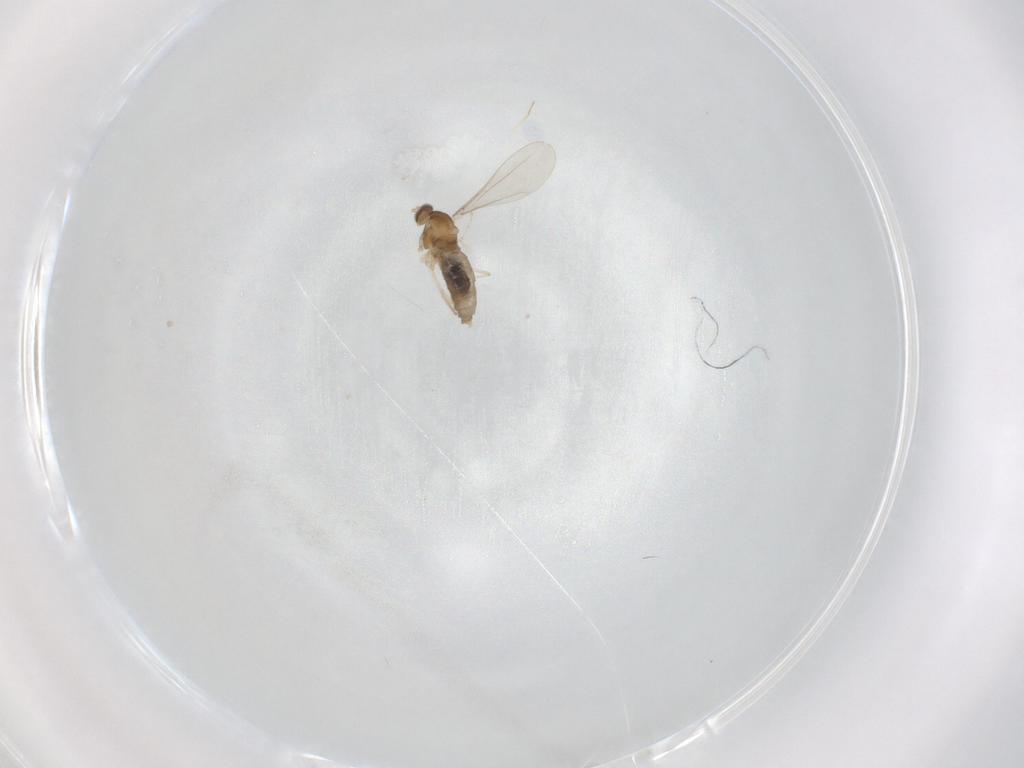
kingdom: Animalia
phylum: Arthropoda
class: Insecta
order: Diptera
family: Cecidomyiidae
